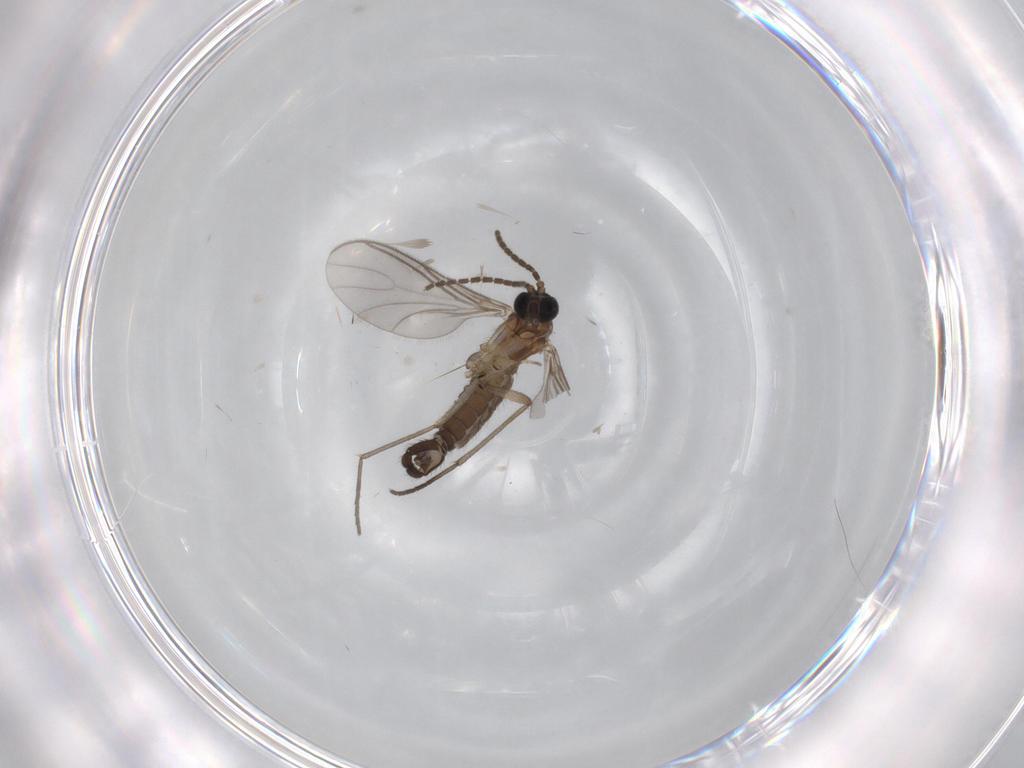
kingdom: Animalia
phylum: Arthropoda
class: Insecta
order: Diptera
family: Sciaridae
